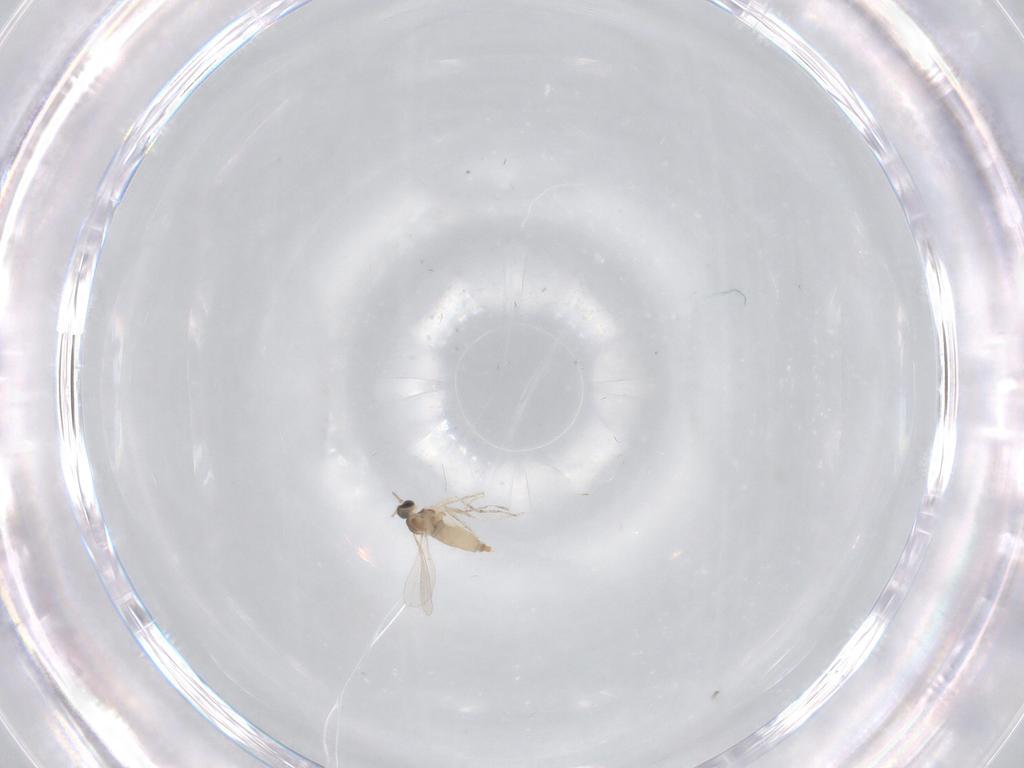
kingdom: Animalia
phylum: Arthropoda
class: Insecta
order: Diptera
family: Cecidomyiidae
